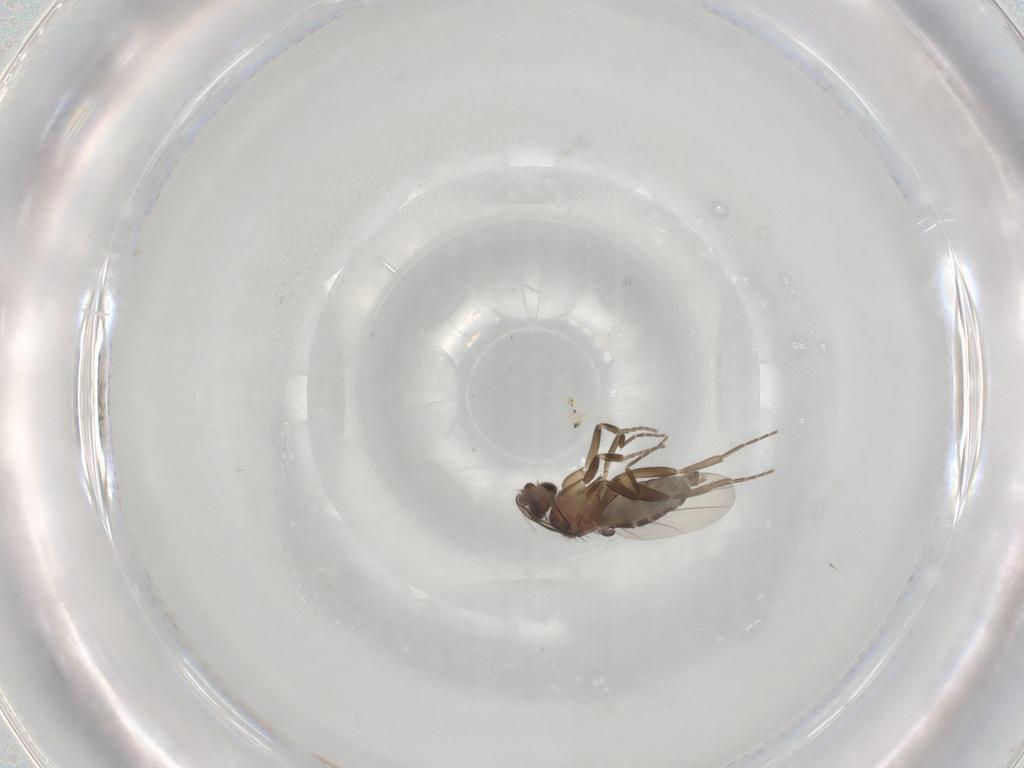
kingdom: Animalia
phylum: Arthropoda
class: Insecta
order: Diptera
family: Phoridae
